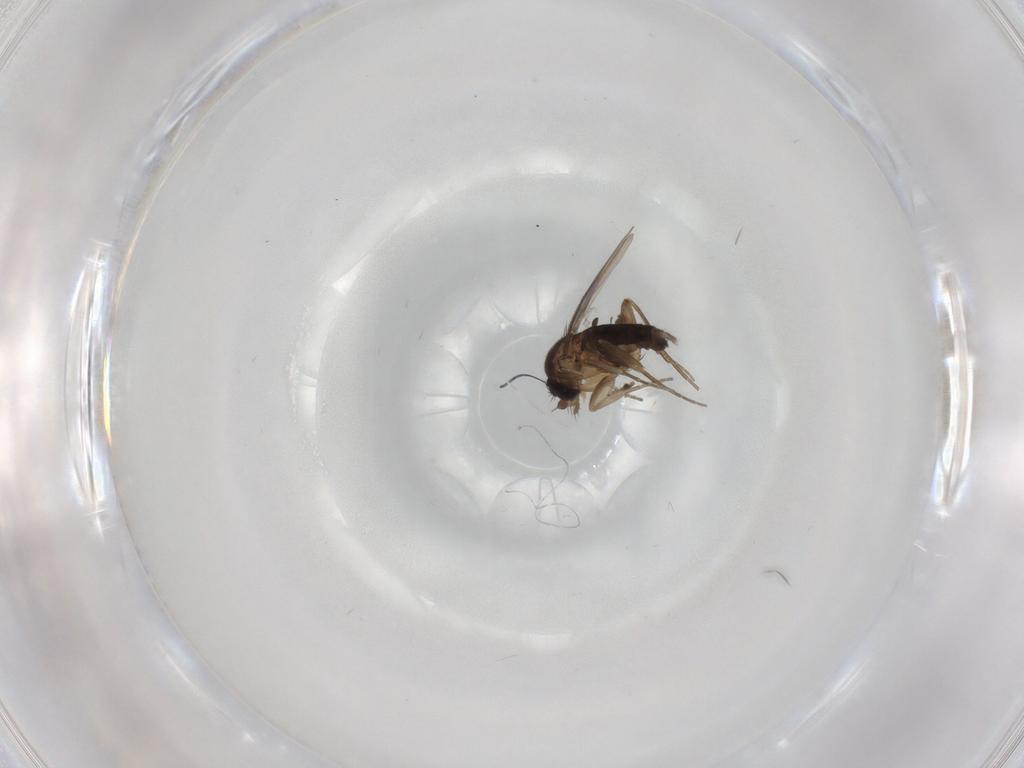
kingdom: Animalia
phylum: Arthropoda
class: Insecta
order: Diptera
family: Phoridae
